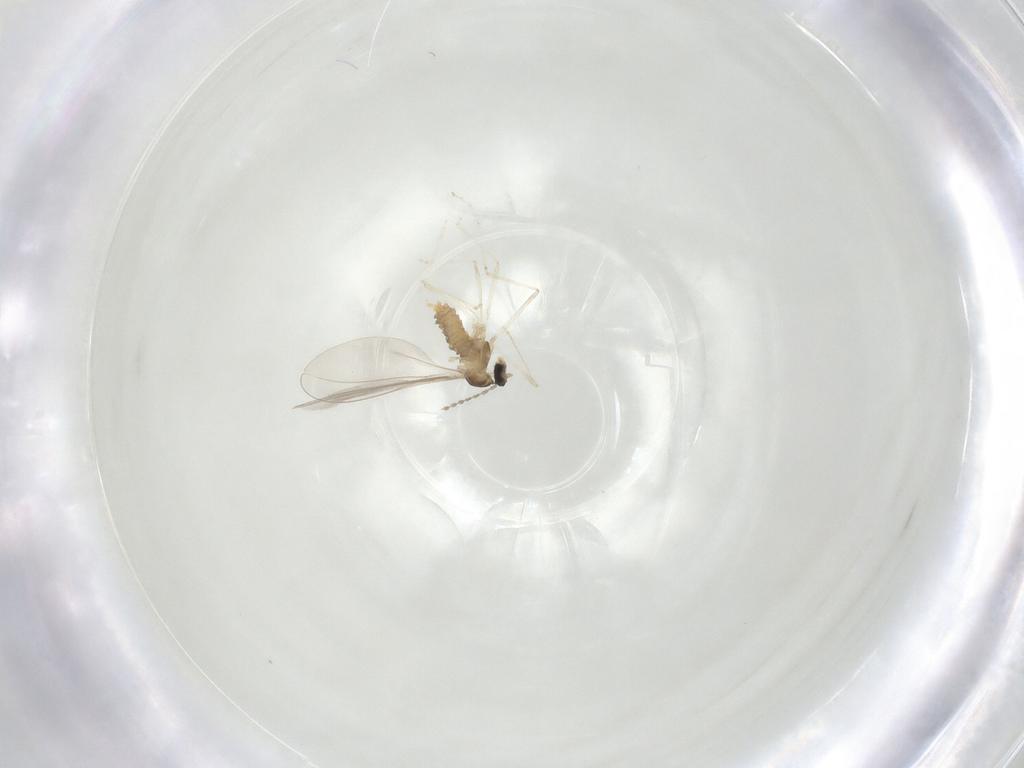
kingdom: Animalia
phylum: Arthropoda
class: Insecta
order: Diptera
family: Cecidomyiidae
